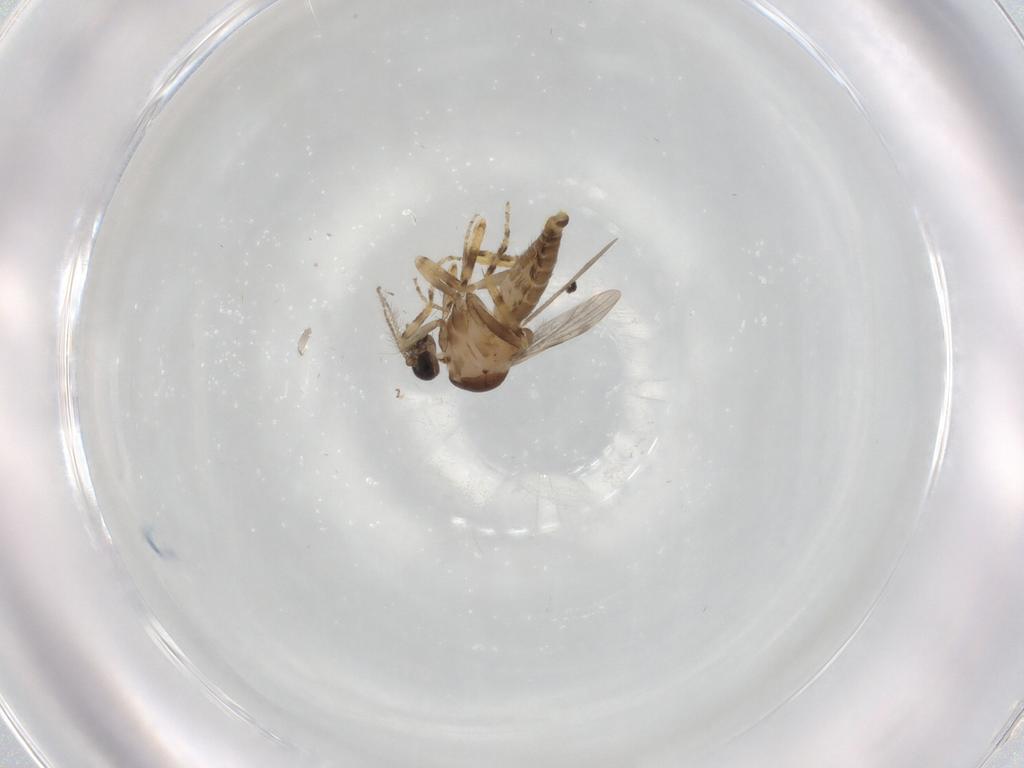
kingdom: Animalia
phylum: Arthropoda
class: Insecta
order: Diptera
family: Ceratopogonidae
